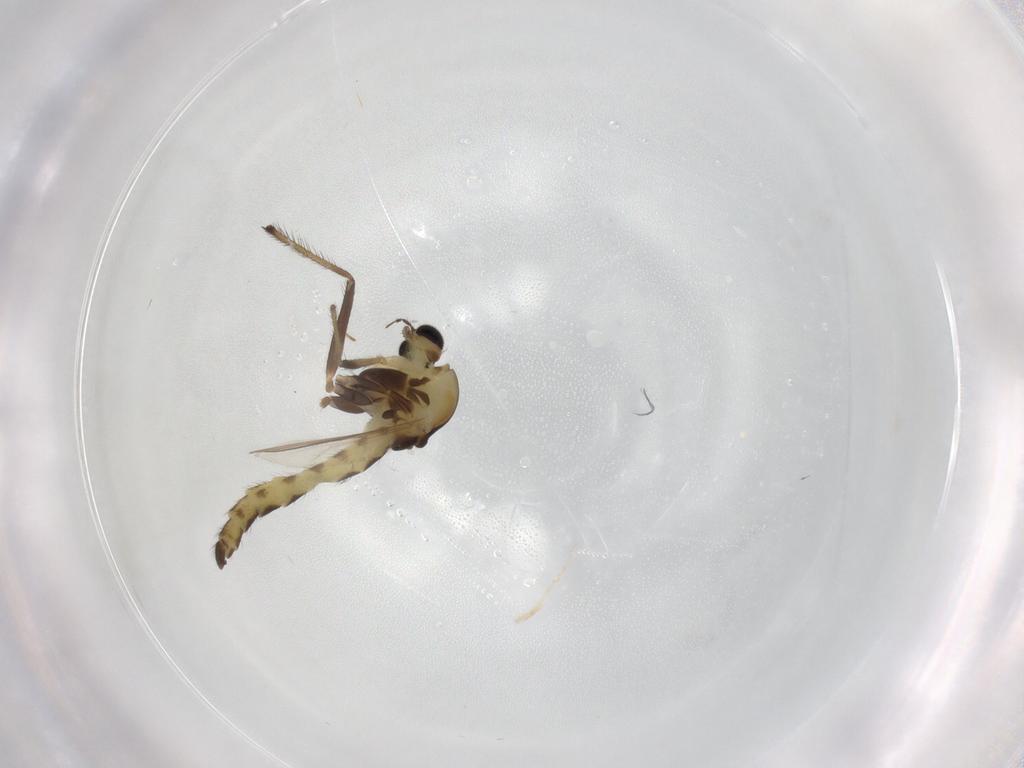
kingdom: Animalia
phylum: Arthropoda
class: Insecta
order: Diptera
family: Chironomidae
